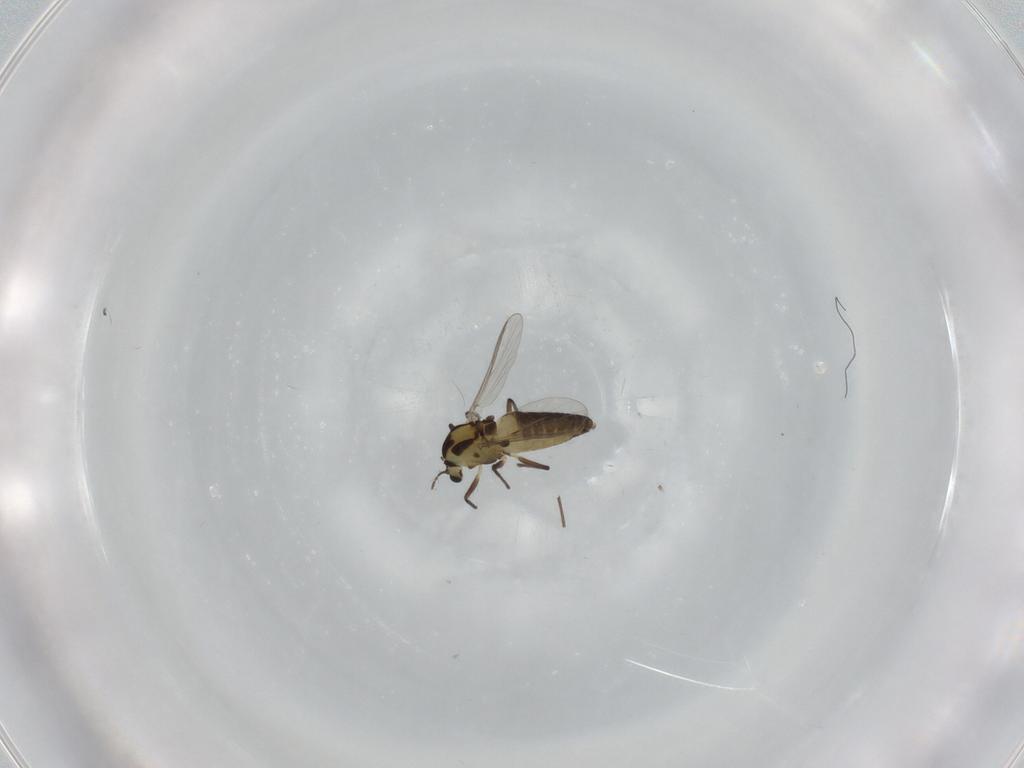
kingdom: Animalia
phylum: Arthropoda
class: Insecta
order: Diptera
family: Chironomidae
